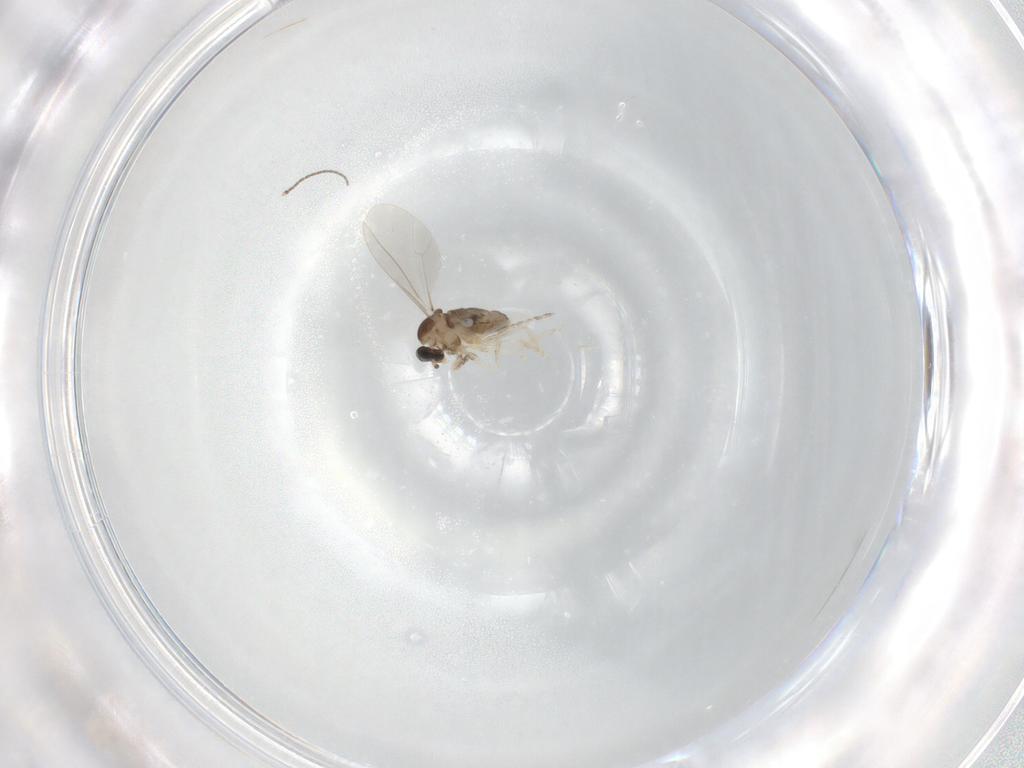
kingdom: Animalia
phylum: Arthropoda
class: Insecta
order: Diptera
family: Cecidomyiidae
